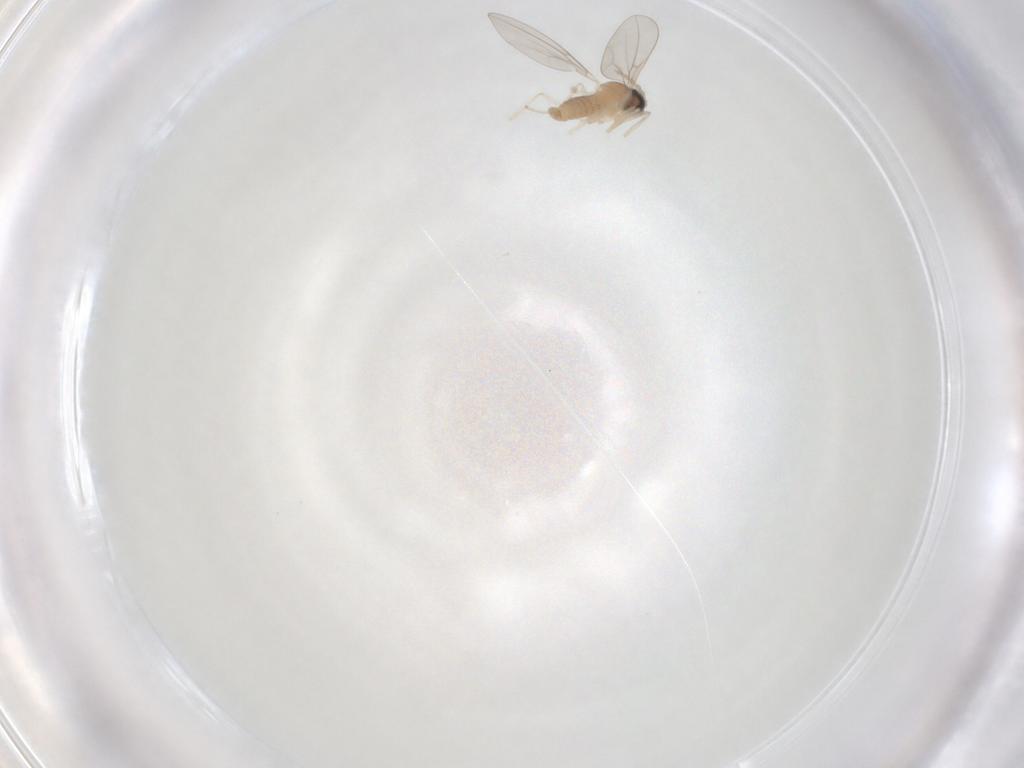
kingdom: Animalia
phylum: Arthropoda
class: Insecta
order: Diptera
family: Cecidomyiidae
